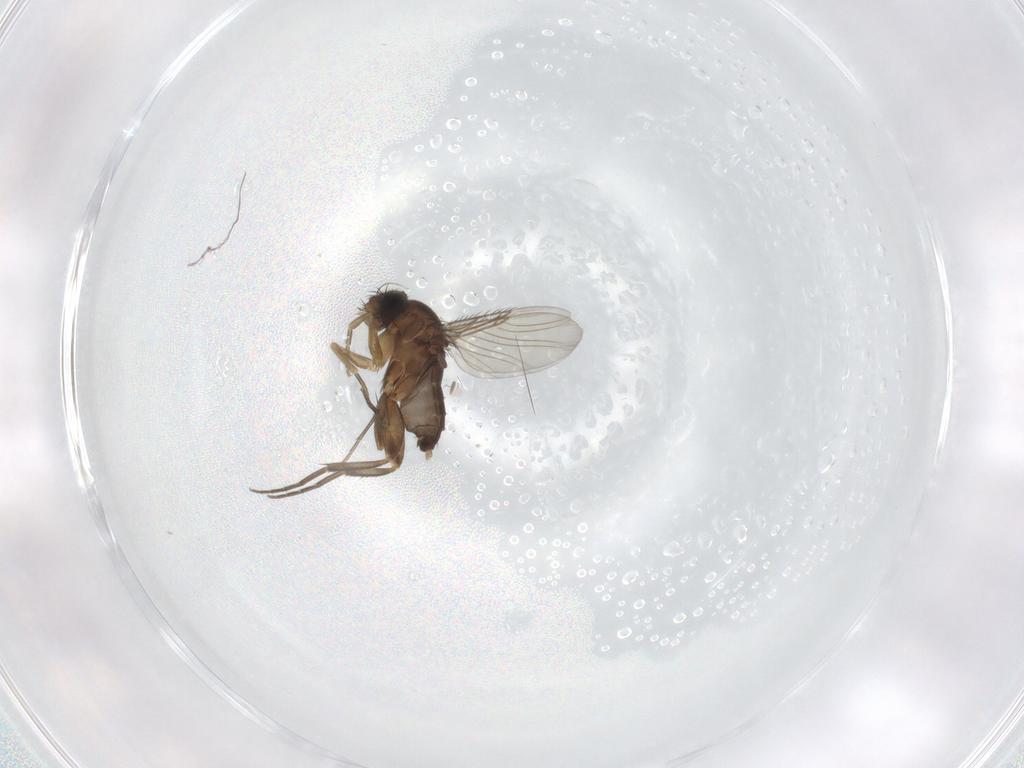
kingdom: Animalia
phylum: Arthropoda
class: Insecta
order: Diptera
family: Phoridae
